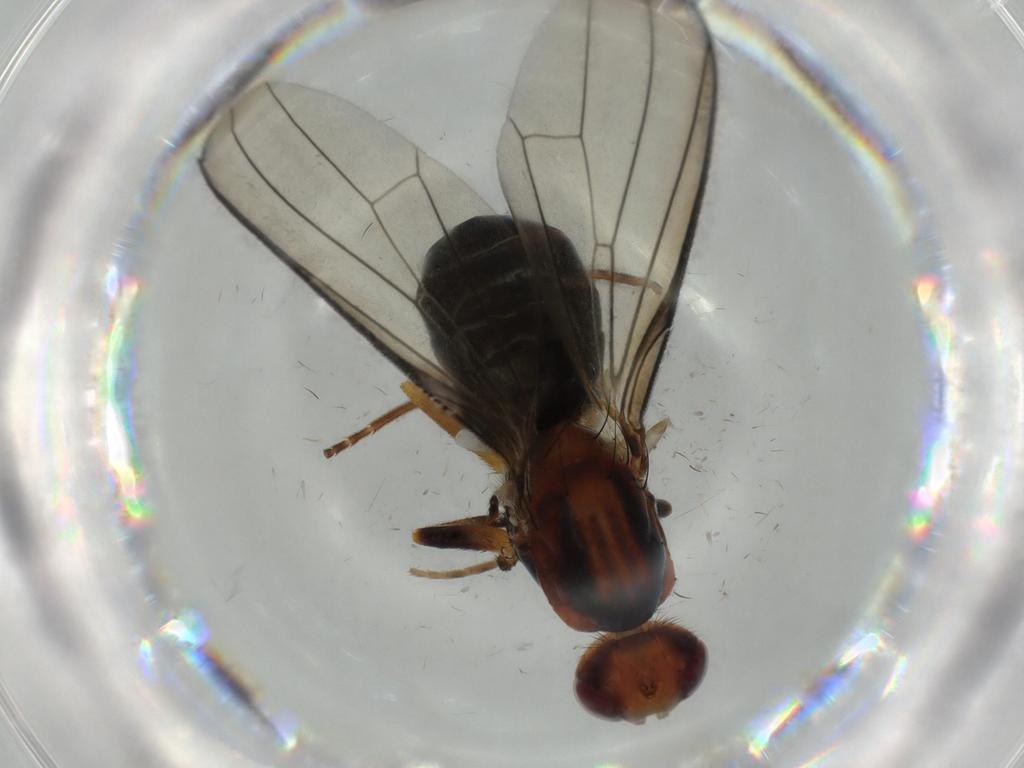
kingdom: Animalia
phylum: Arthropoda
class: Insecta
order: Diptera
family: Piophilidae
